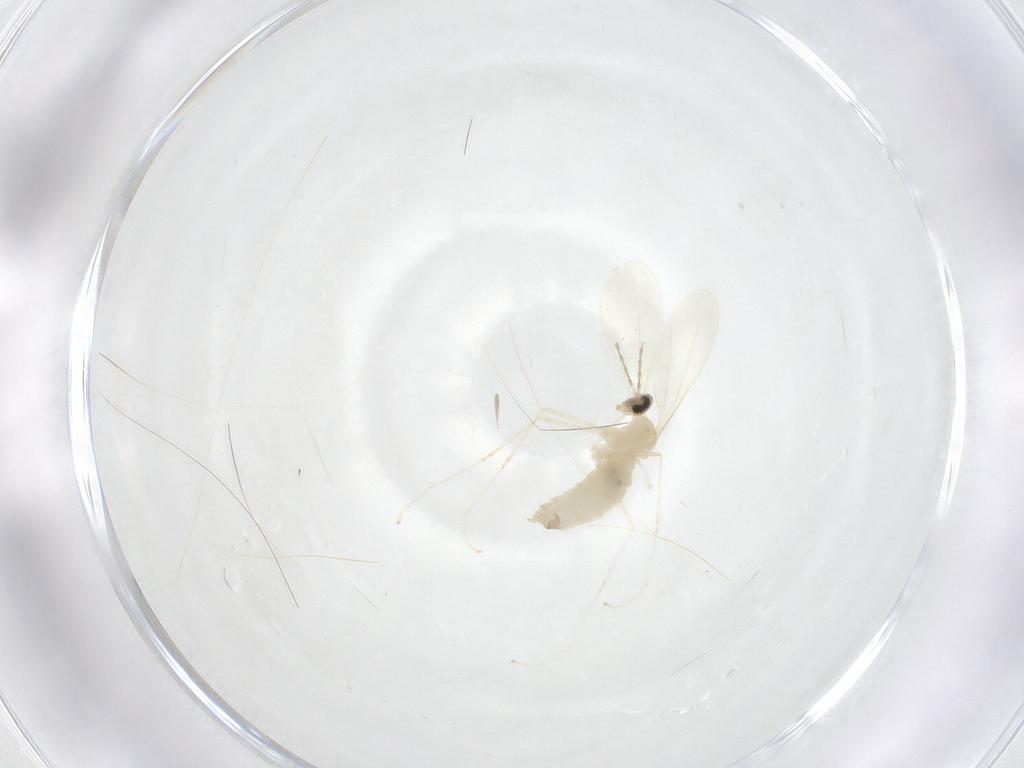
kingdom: Animalia
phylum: Arthropoda
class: Insecta
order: Diptera
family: Cecidomyiidae
